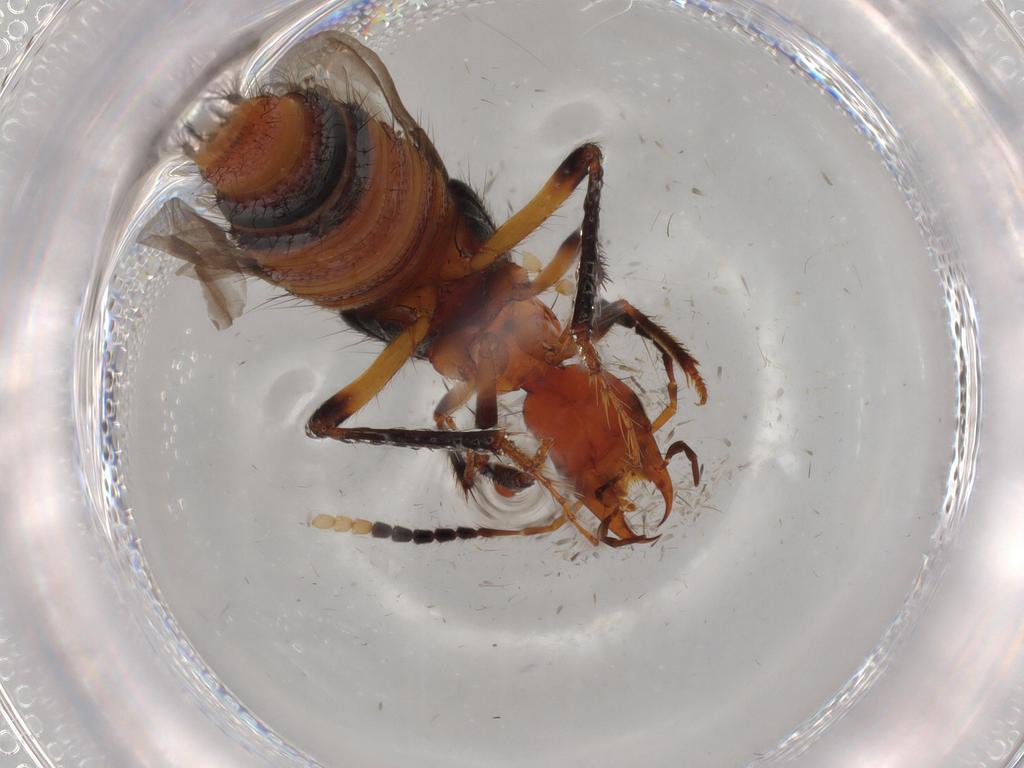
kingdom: Animalia
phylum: Arthropoda
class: Insecta
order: Coleoptera
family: Staphylinidae
